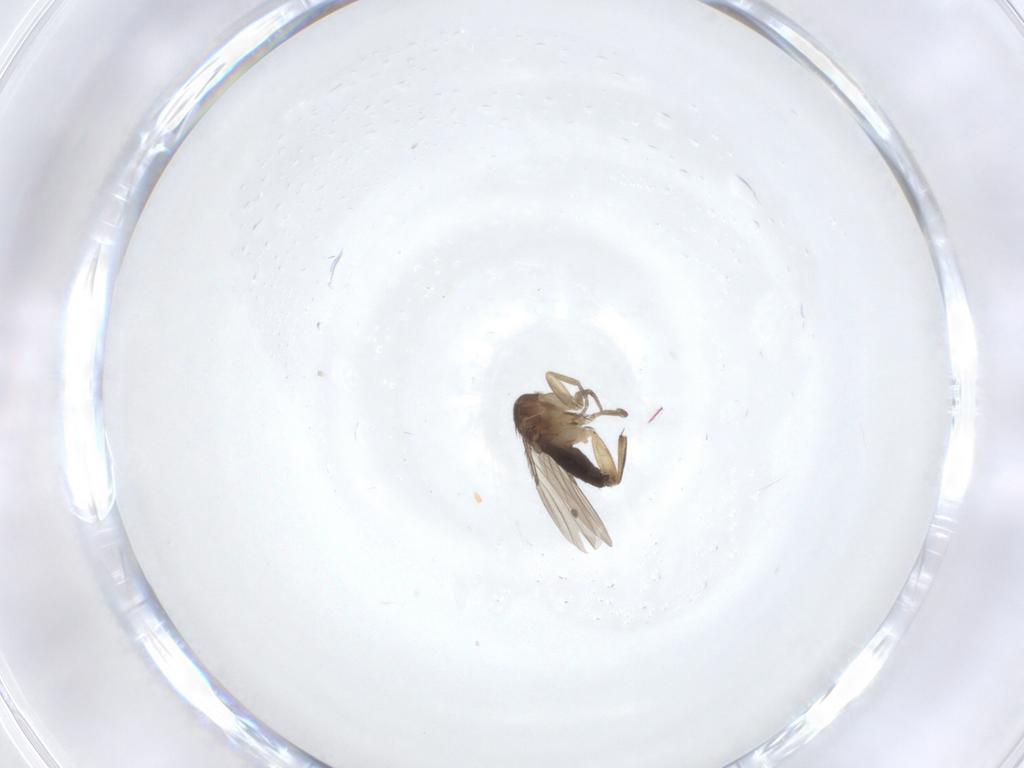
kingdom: Animalia
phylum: Arthropoda
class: Insecta
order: Diptera
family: Phoridae
